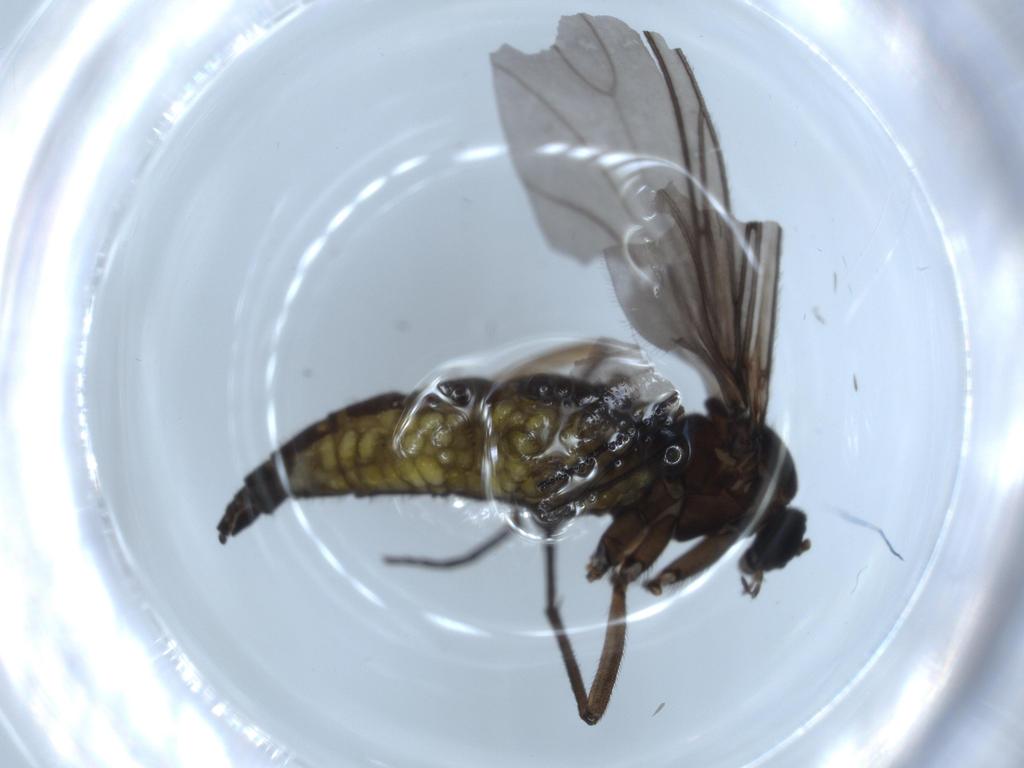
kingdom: Animalia
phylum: Arthropoda
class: Insecta
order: Diptera
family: Sciaridae
